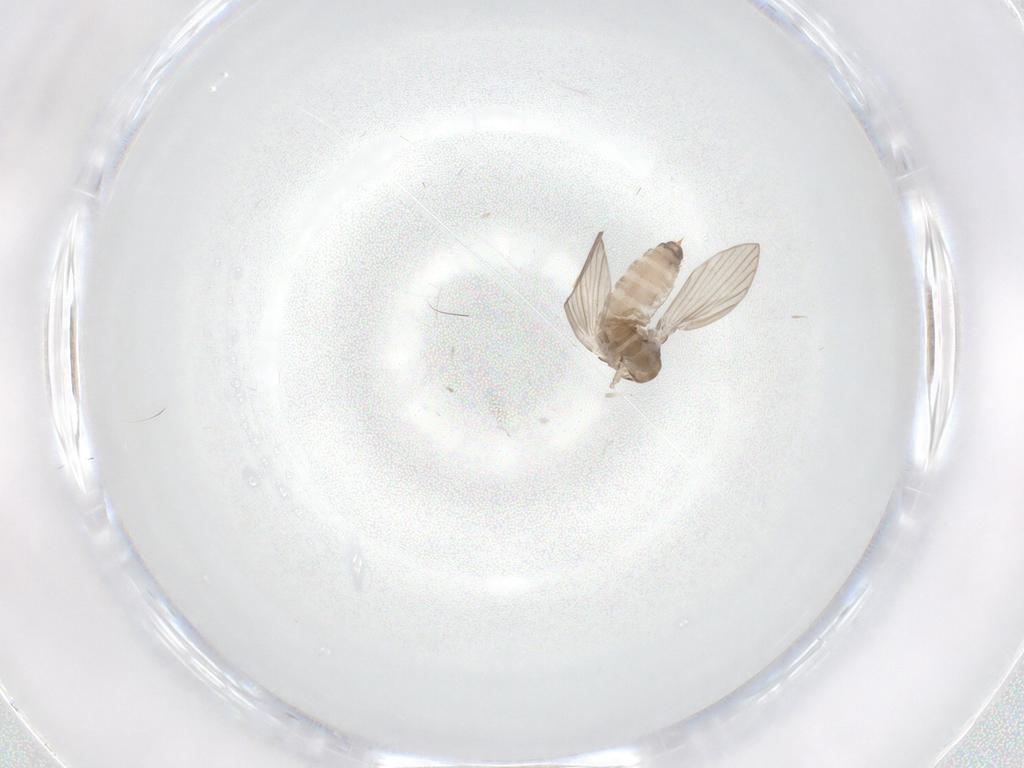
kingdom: Animalia
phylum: Arthropoda
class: Insecta
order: Diptera
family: Psychodidae
